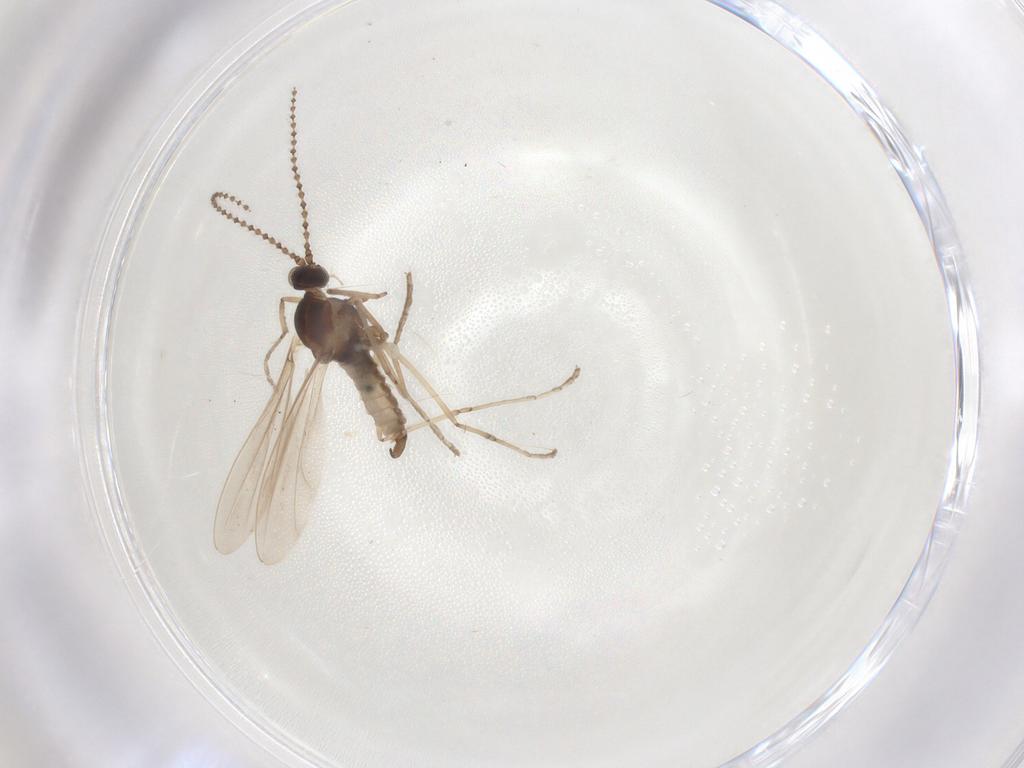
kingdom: Animalia
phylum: Arthropoda
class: Insecta
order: Diptera
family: Cecidomyiidae
